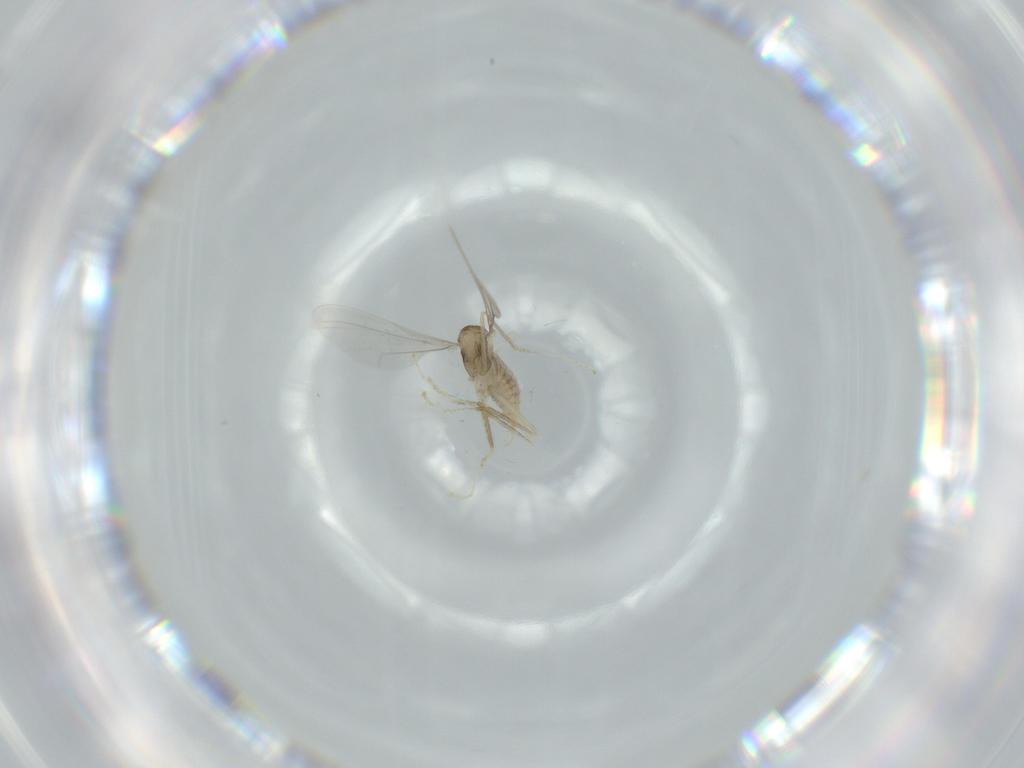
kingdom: Animalia
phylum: Arthropoda
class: Insecta
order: Diptera
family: Cecidomyiidae
